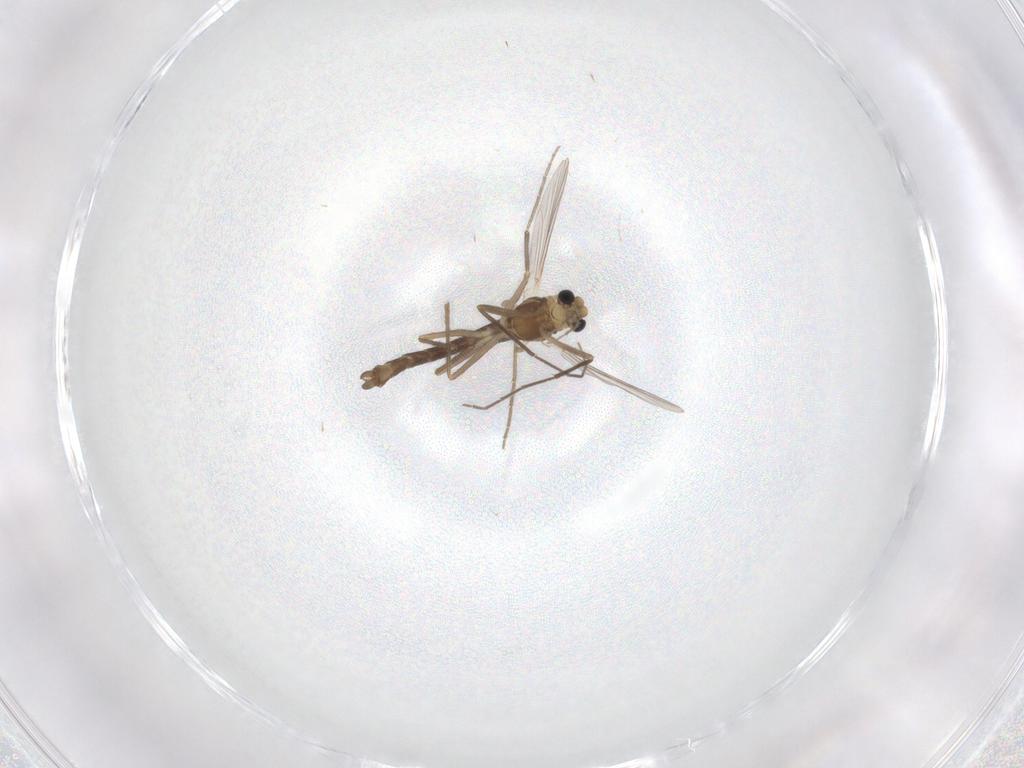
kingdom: Animalia
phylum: Arthropoda
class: Insecta
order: Diptera
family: Chironomidae
